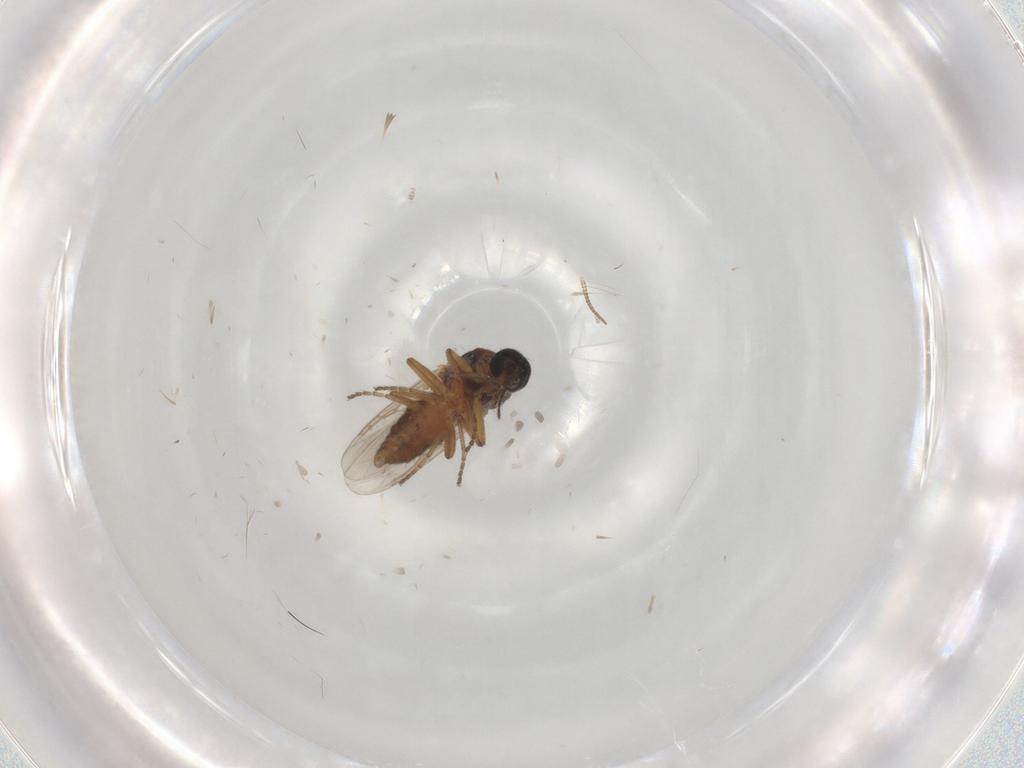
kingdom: Animalia
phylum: Arthropoda
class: Insecta
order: Diptera
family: Ceratopogonidae
